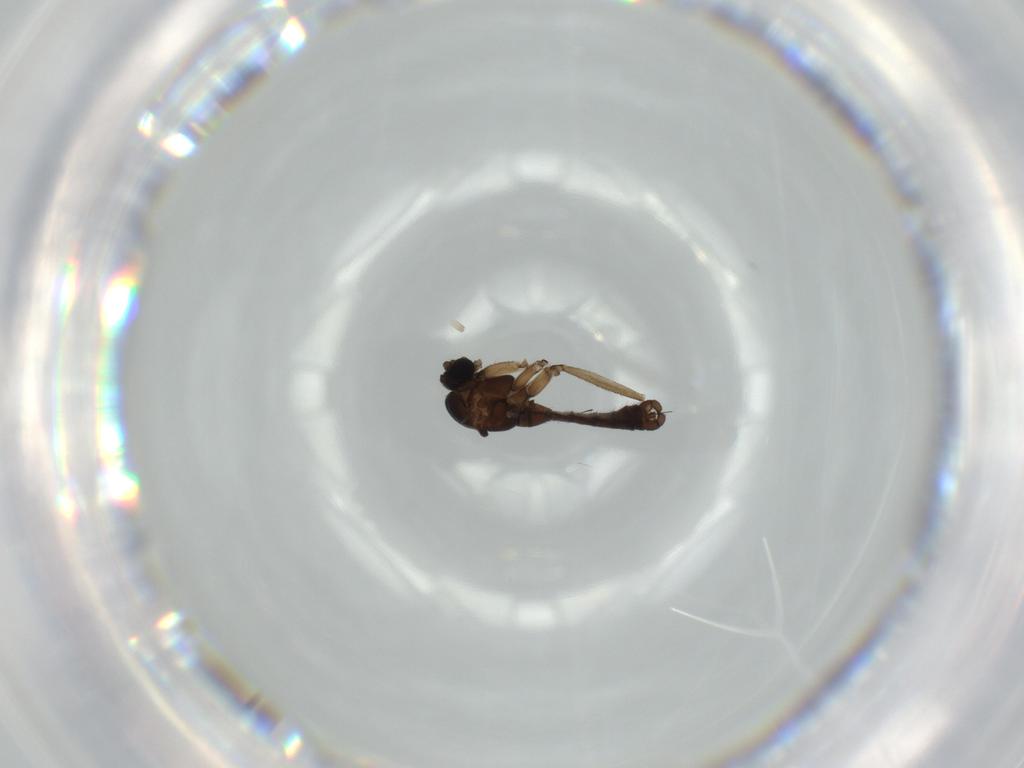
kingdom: Animalia
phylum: Arthropoda
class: Insecta
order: Diptera
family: Sciaridae
